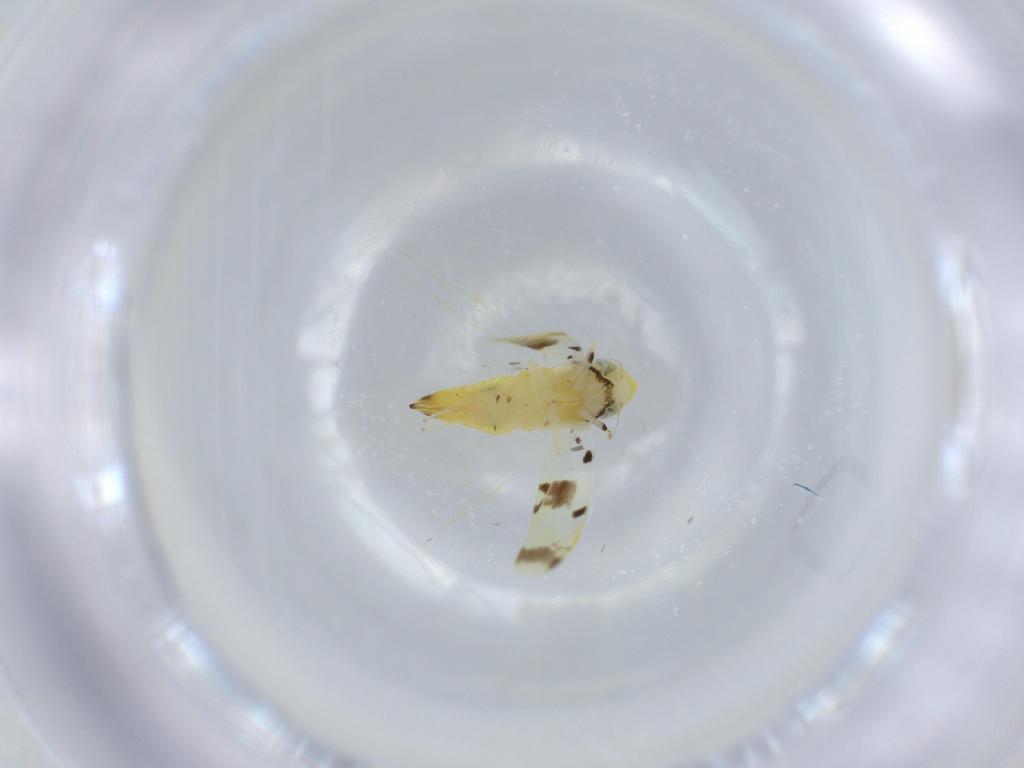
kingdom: Animalia
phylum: Arthropoda
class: Insecta
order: Hemiptera
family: Cicadellidae
